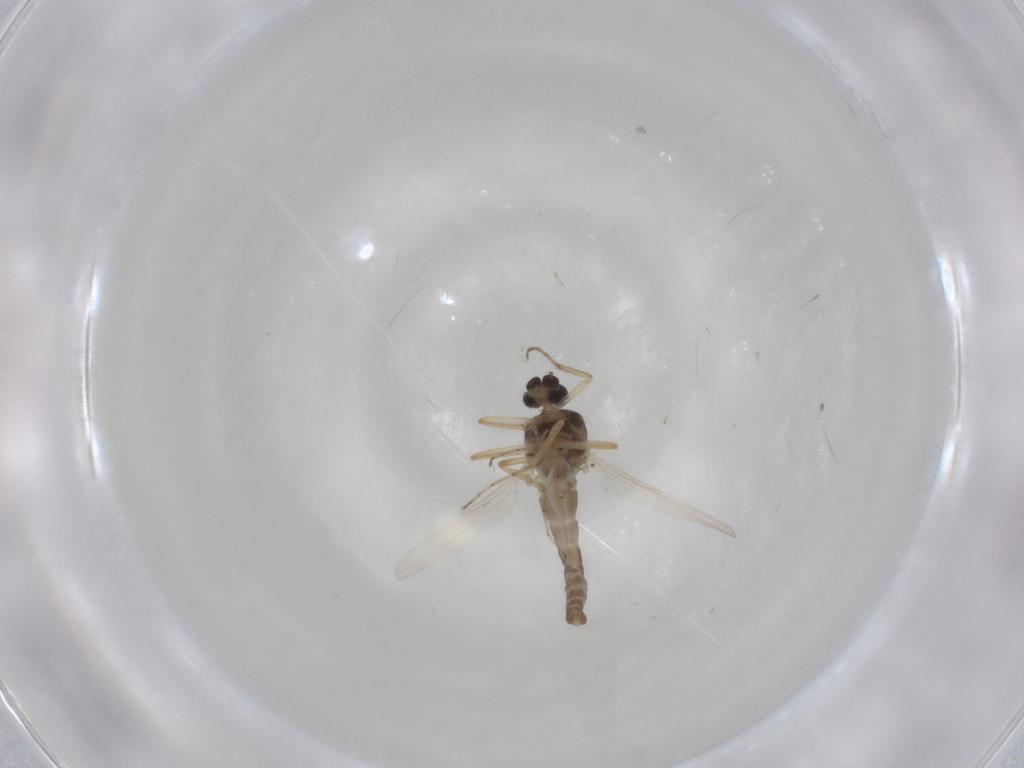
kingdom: Animalia
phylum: Arthropoda
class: Insecta
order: Diptera
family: Ceratopogonidae
